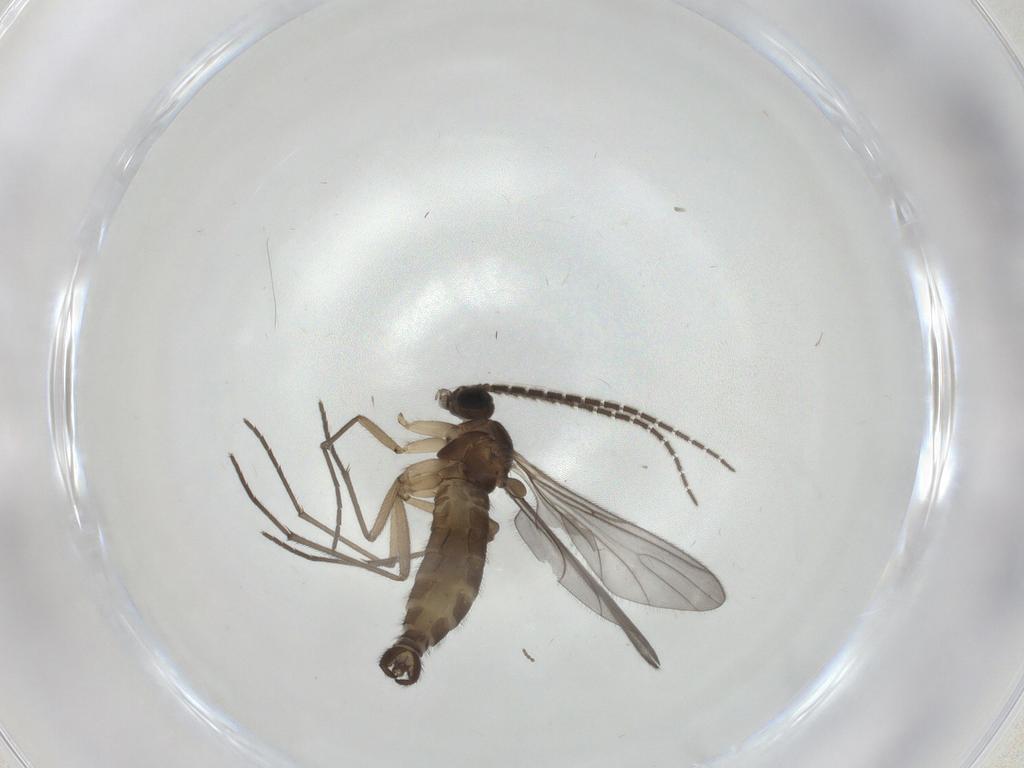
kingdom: Animalia
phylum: Arthropoda
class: Insecta
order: Diptera
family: Sciaridae
